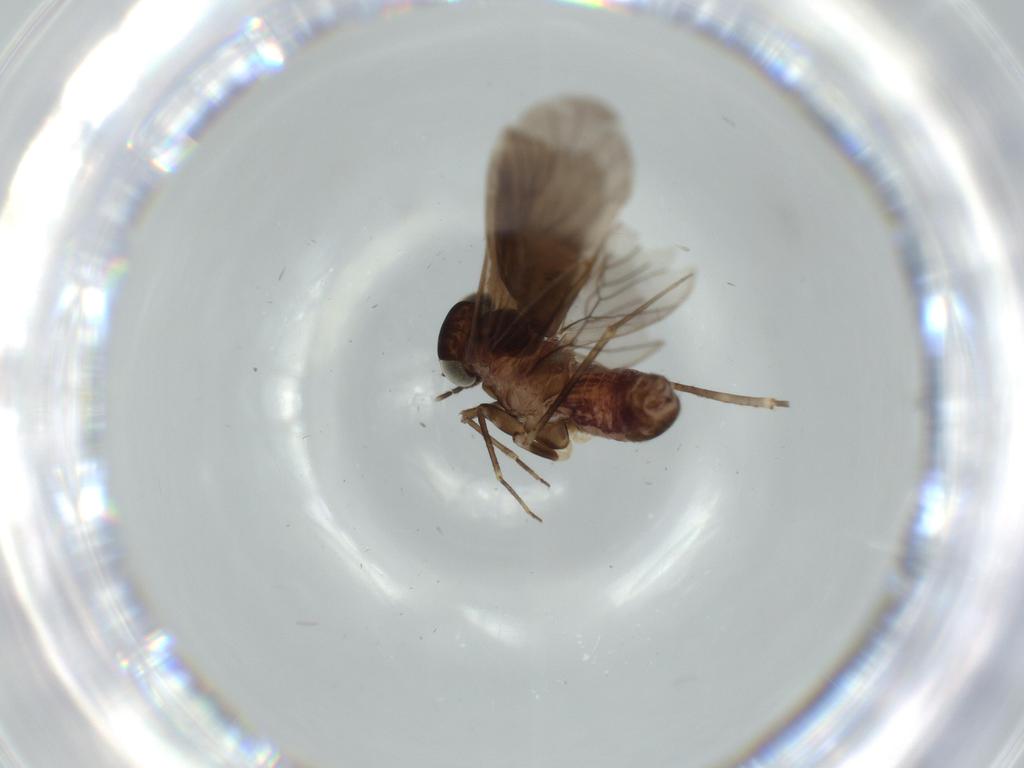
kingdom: Animalia
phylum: Arthropoda
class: Insecta
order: Psocodea
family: Amphientomidae
